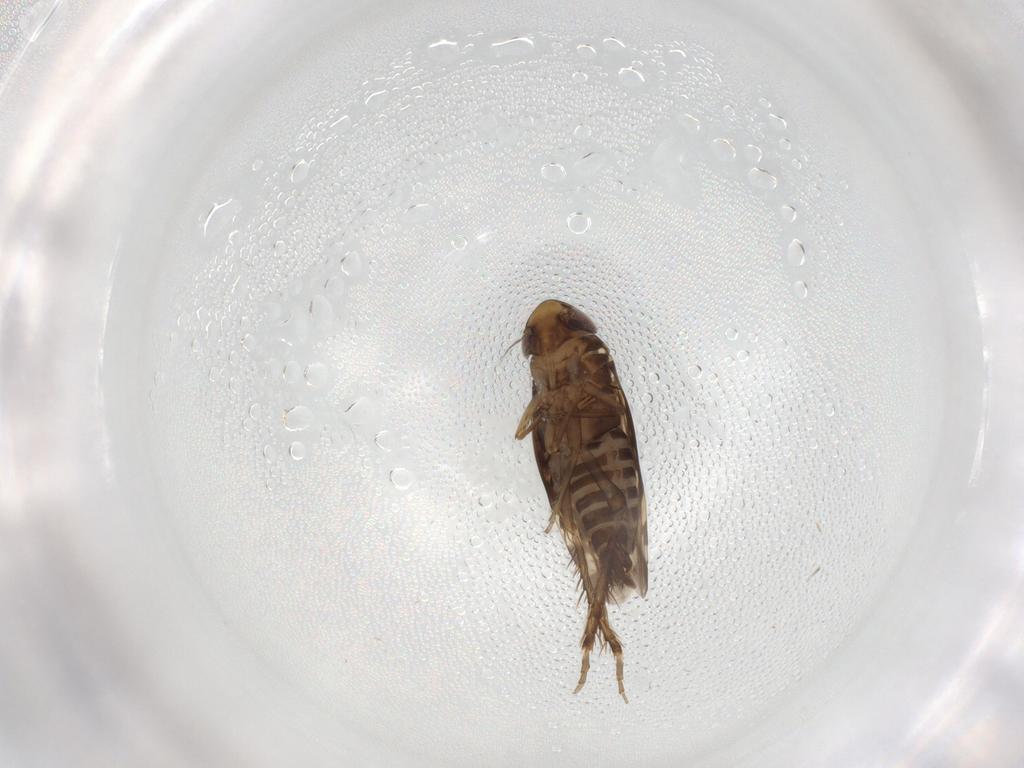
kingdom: Animalia
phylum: Arthropoda
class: Insecta
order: Hemiptera
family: Cicadellidae
